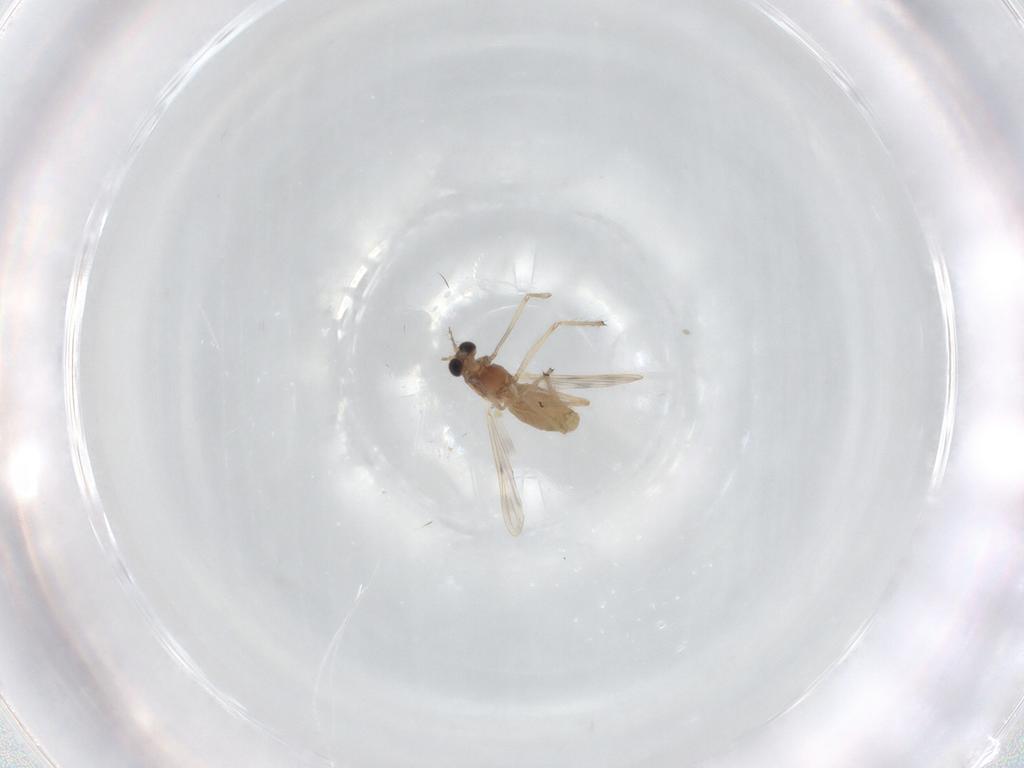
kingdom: Animalia
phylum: Arthropoda
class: Insecta
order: Diptera
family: Chironomidae
